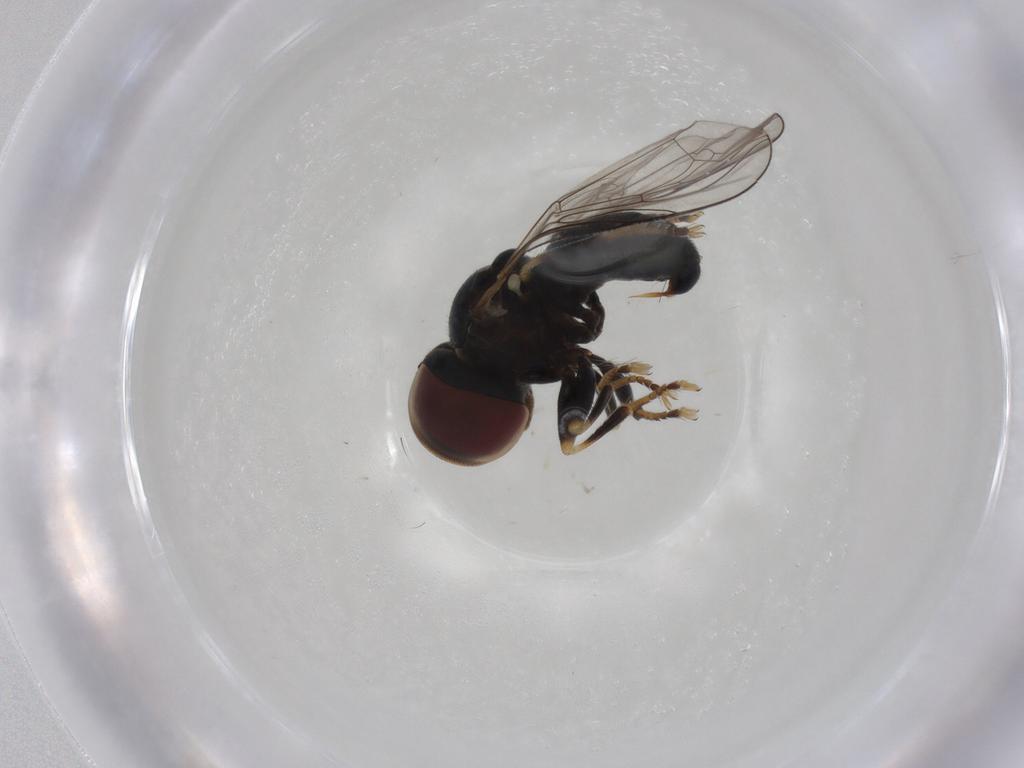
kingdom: Animalia
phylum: Arthropoda
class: Insecta
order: Diptera
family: Pipunculidae
